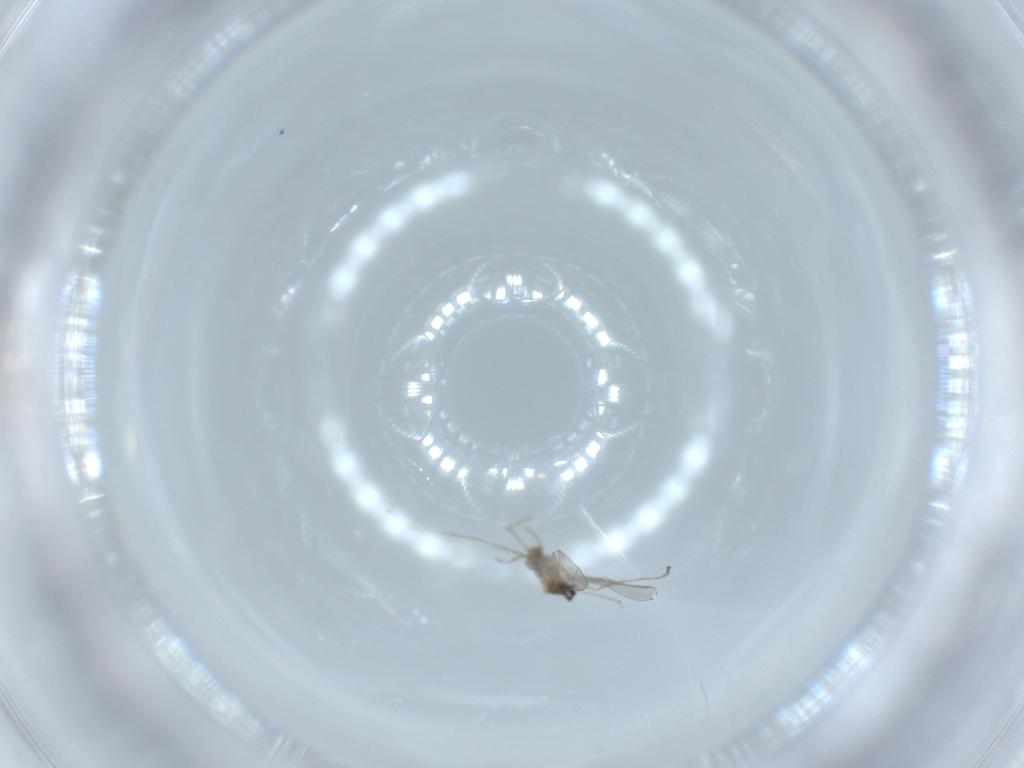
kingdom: Animalia
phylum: Arthropoda
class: Insecta
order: Diptera
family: Cecidomyiidae
